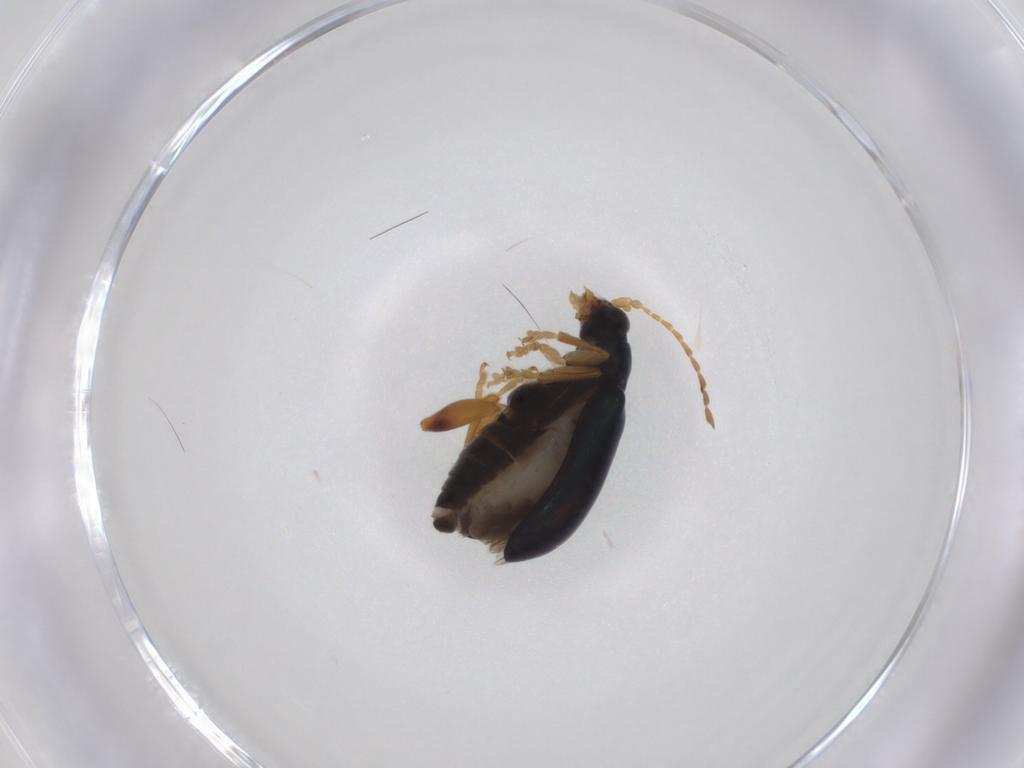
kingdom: Animalia
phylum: Arthropoda
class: Insecta
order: Coleoptera
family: Chrysomelidae
